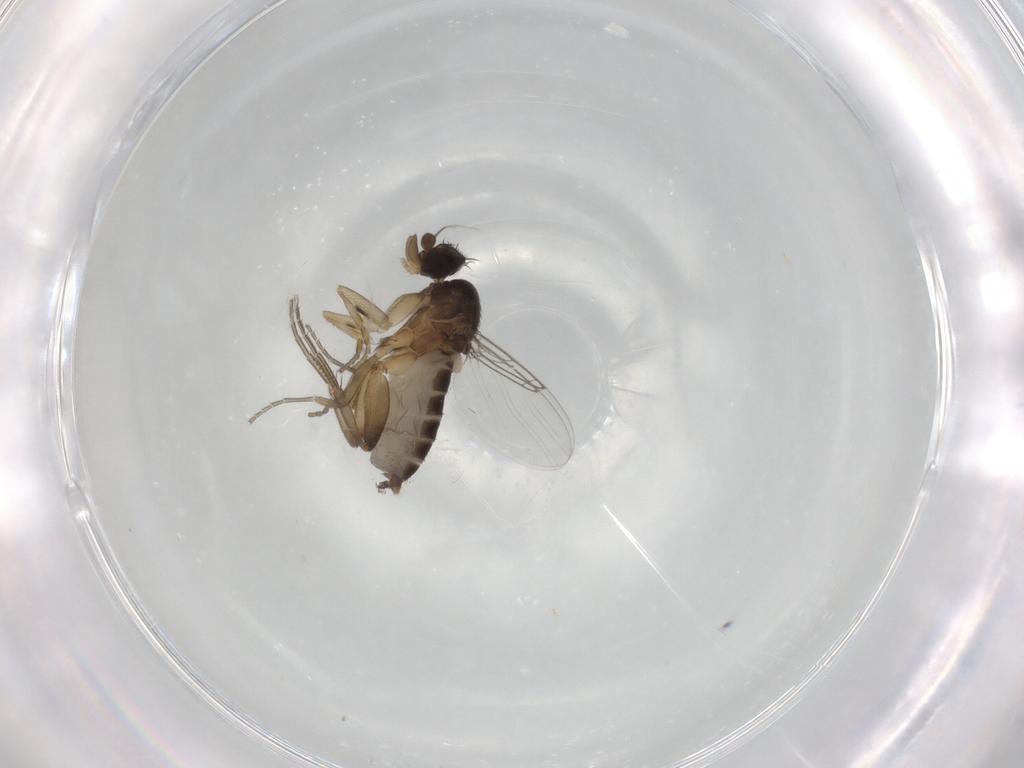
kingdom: Animalia
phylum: Arthropoda
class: Insecta
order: Diptera
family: Phoridae
